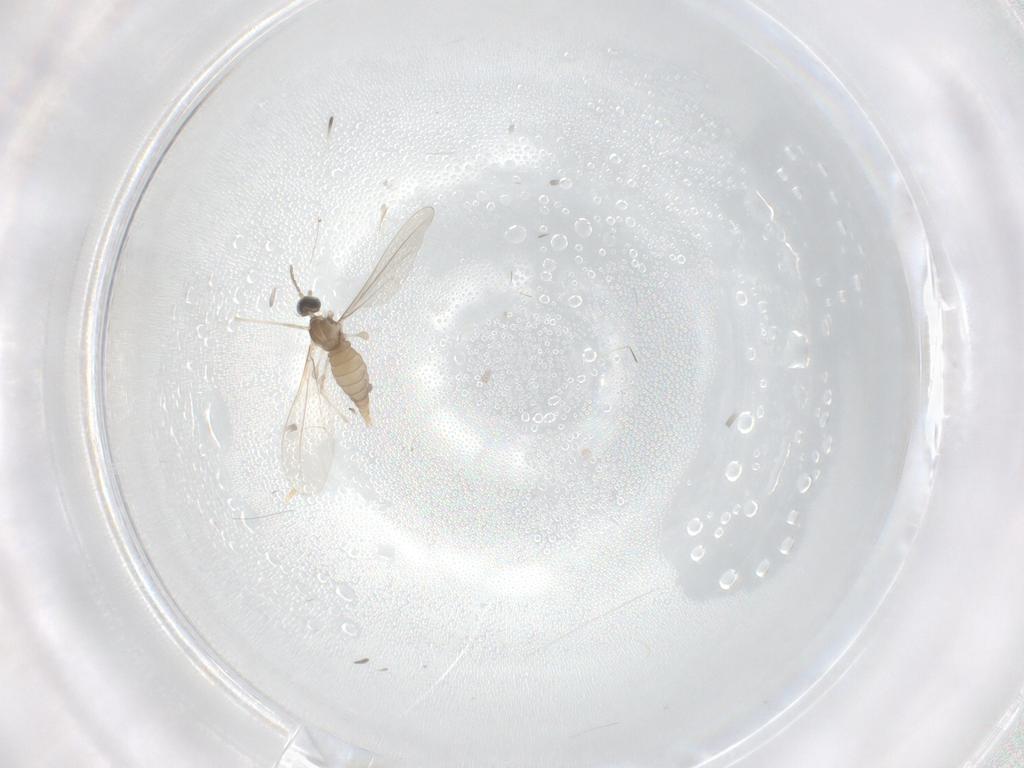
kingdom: Animalia
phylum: Arthropoda
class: Insecta
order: Diptera
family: Cecidomyiidae
